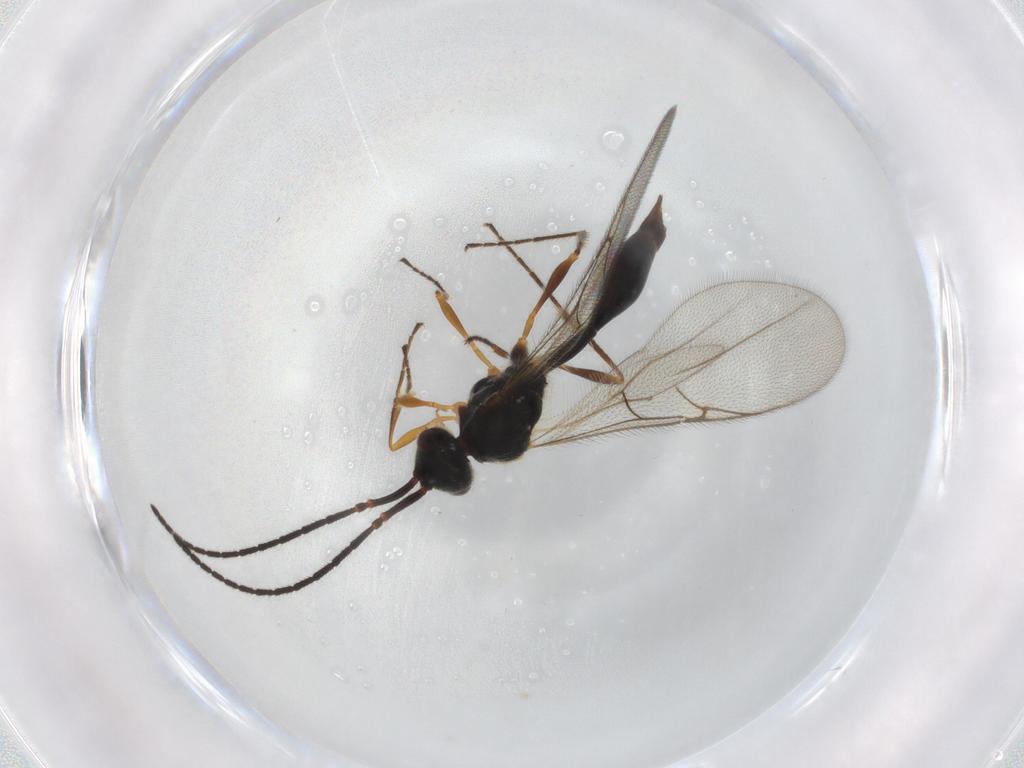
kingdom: Animalia
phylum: Arthropoda
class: Insecta
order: Hymenoptera
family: Diapriidae
